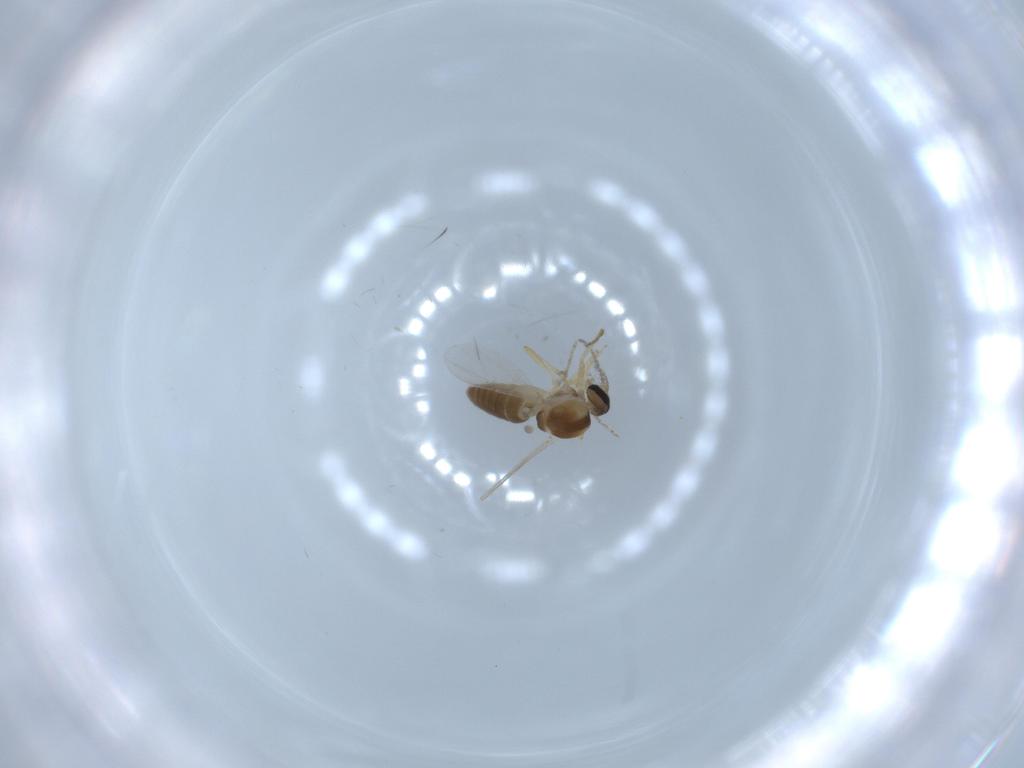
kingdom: Animalia
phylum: Arthropoda
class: Insecta
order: Diptera
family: Ceratopogonidae
